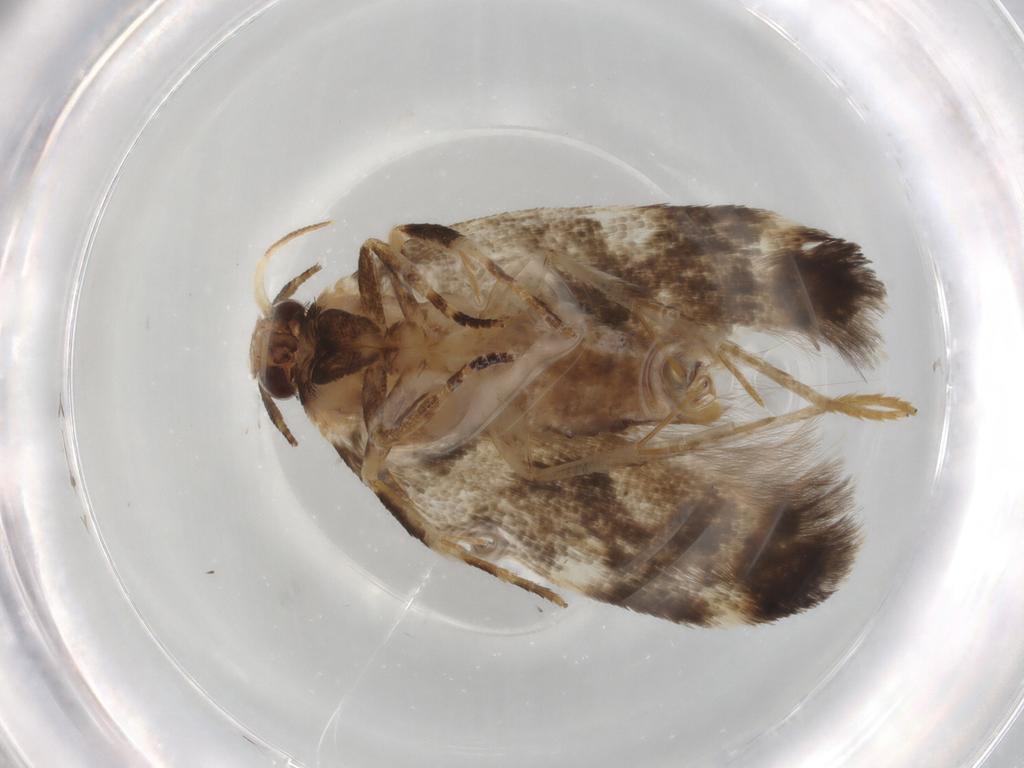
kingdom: Animalia
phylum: Arthropoda
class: Insecta
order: Lepidoptera
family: Cosmopterigidae
